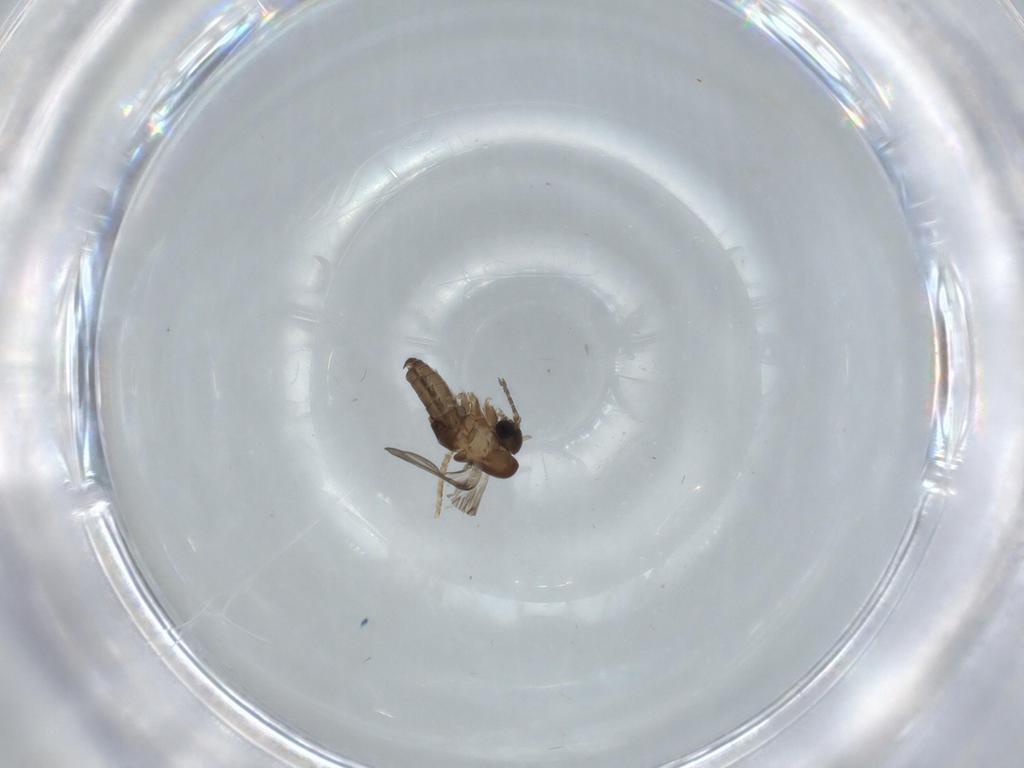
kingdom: Animalia
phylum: Arthropoda
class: Insecta
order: Diptera
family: Psychodidae
